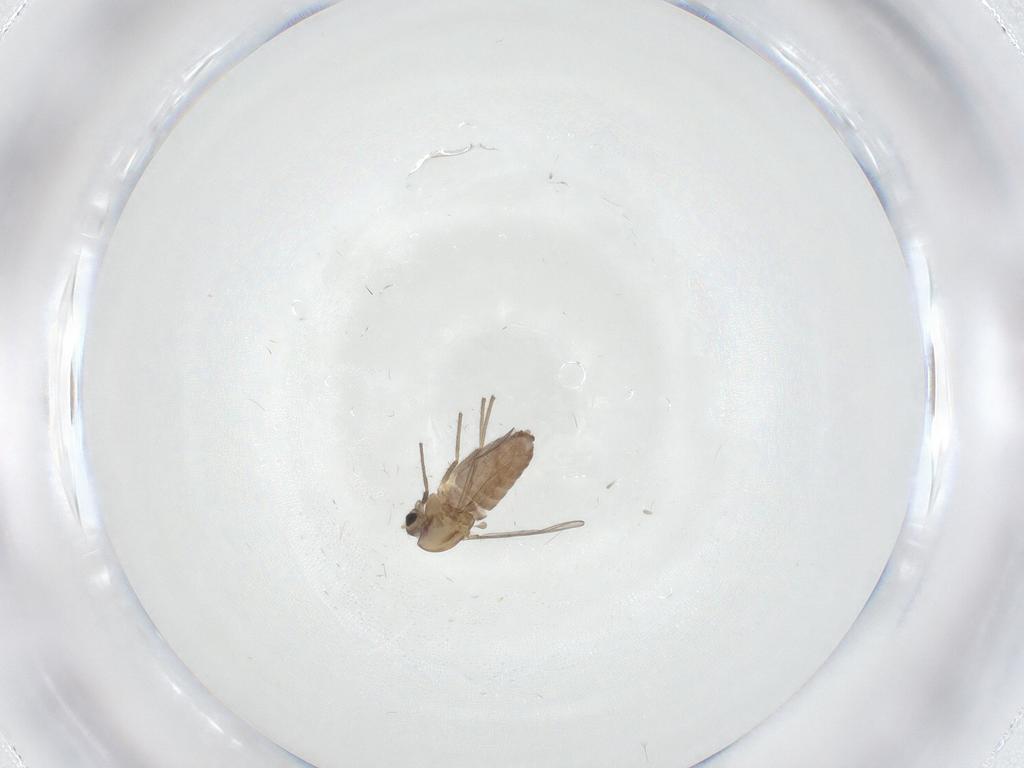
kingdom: Animalia
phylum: Arthropoda
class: Insecta
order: Diptera
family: Chironomidae
